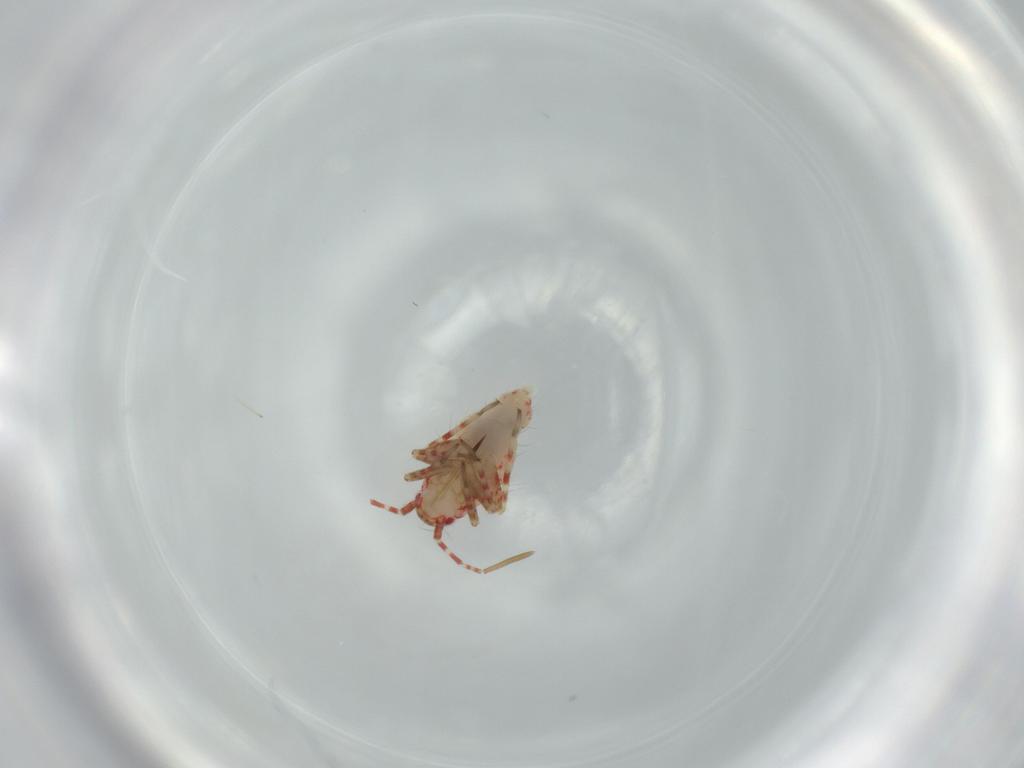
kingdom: Animalia
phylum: Arthropoda
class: Insecta
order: Hemiptera
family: Miridae
